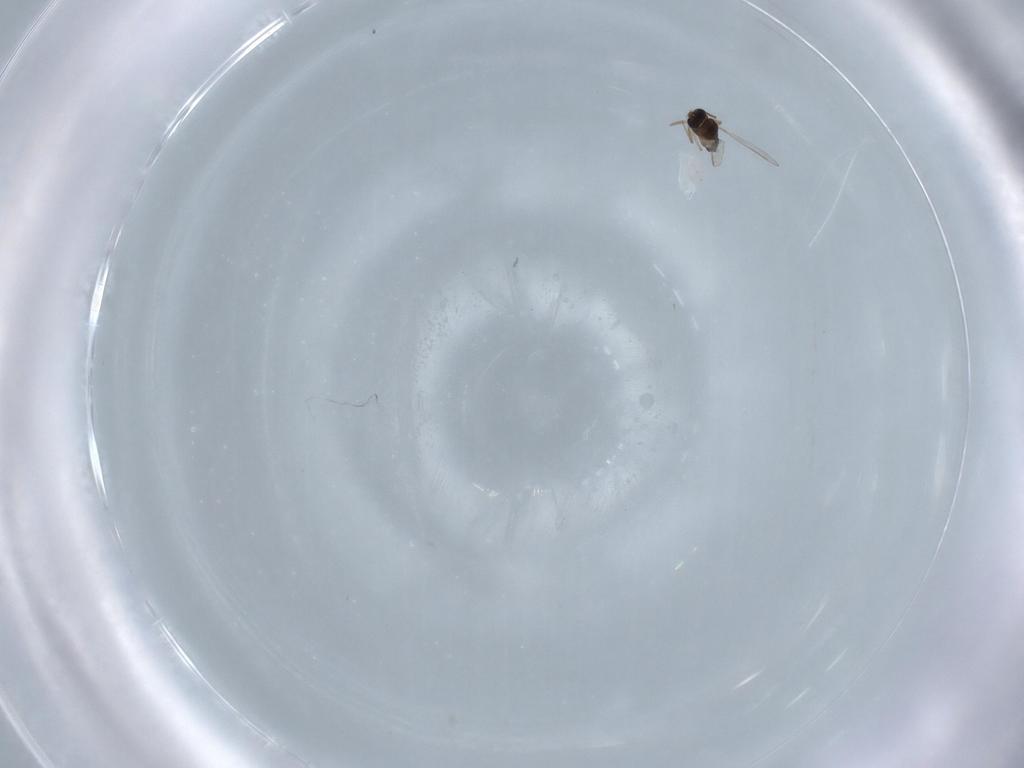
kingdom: Animalia
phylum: Arthropoda
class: Insecta
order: Diptera
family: Chironomidae
